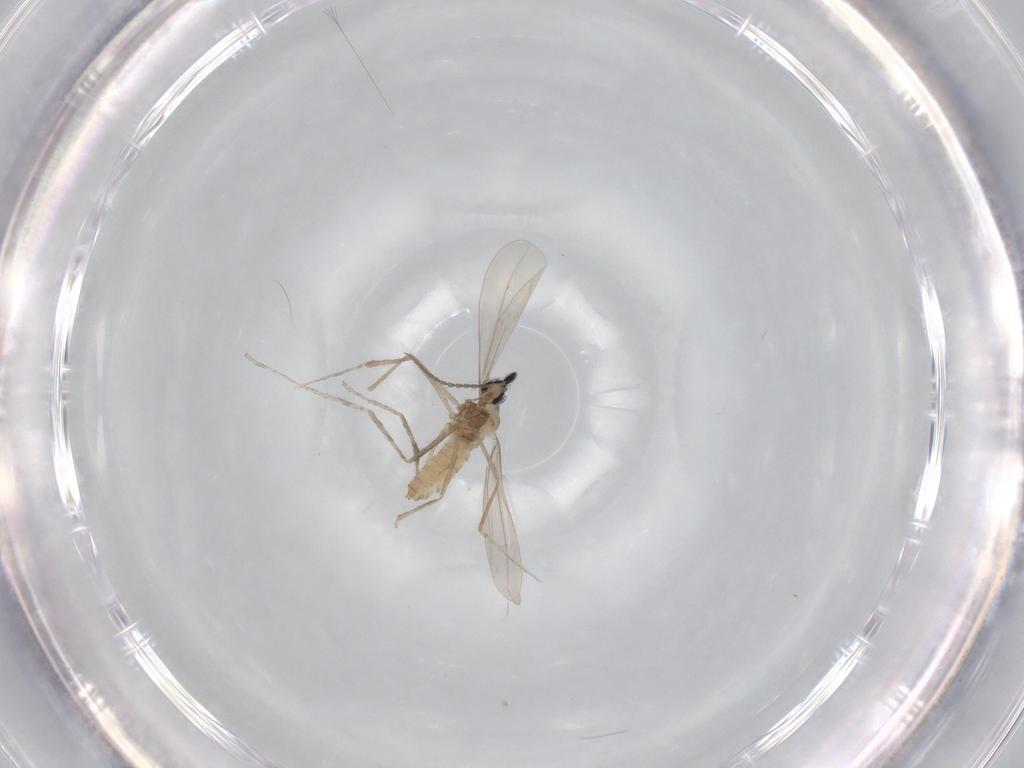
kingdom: Animalia
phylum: Arthropoda
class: Insecta
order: Diptera
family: Cecidomyiidae
